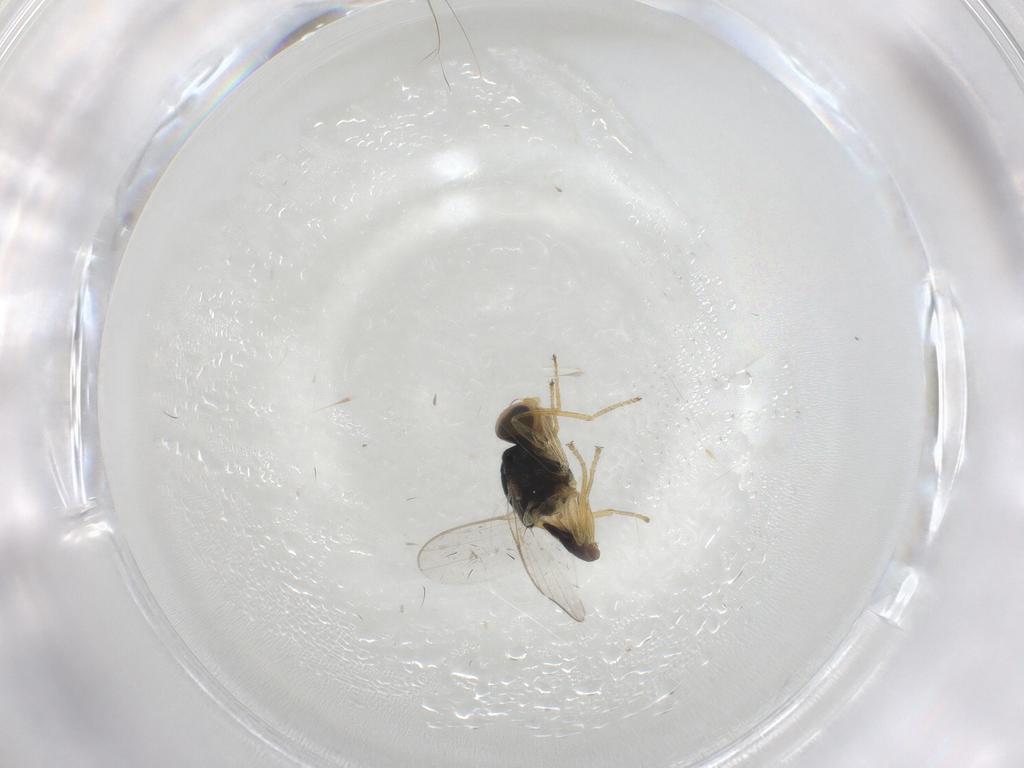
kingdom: Animalia
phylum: Arthropoda
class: Insecta
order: Diptera
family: Chloropidae
